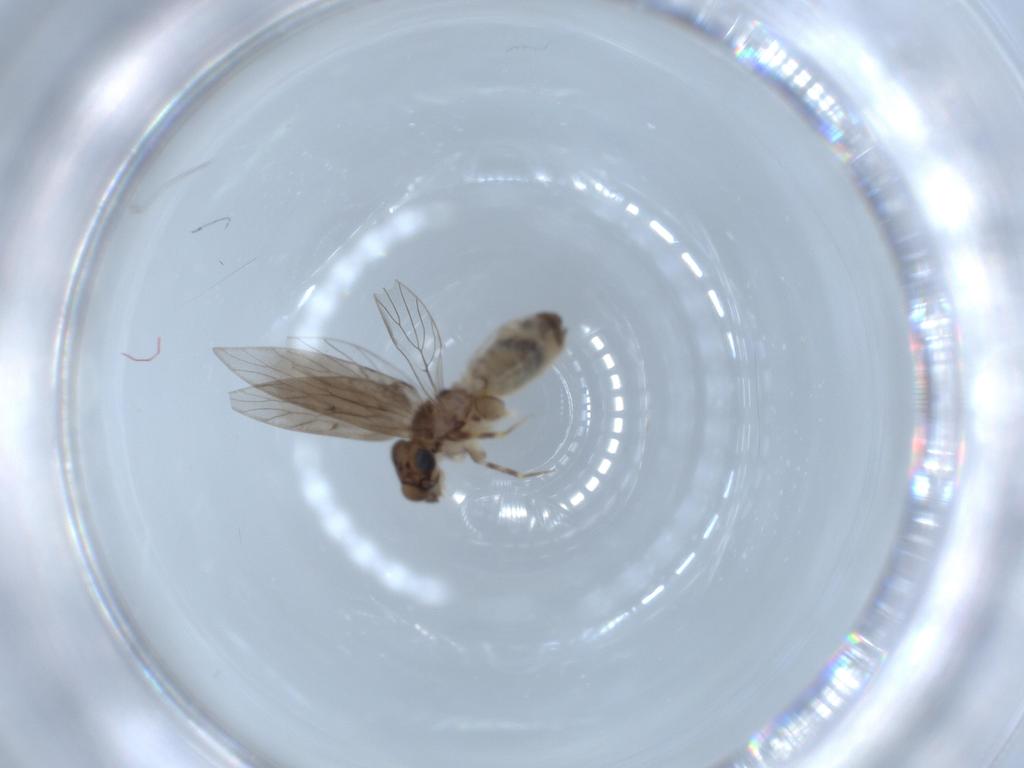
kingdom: Animalia
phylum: Arthropoda
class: Insecta
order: Psocodea
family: Lepidopsocidae
